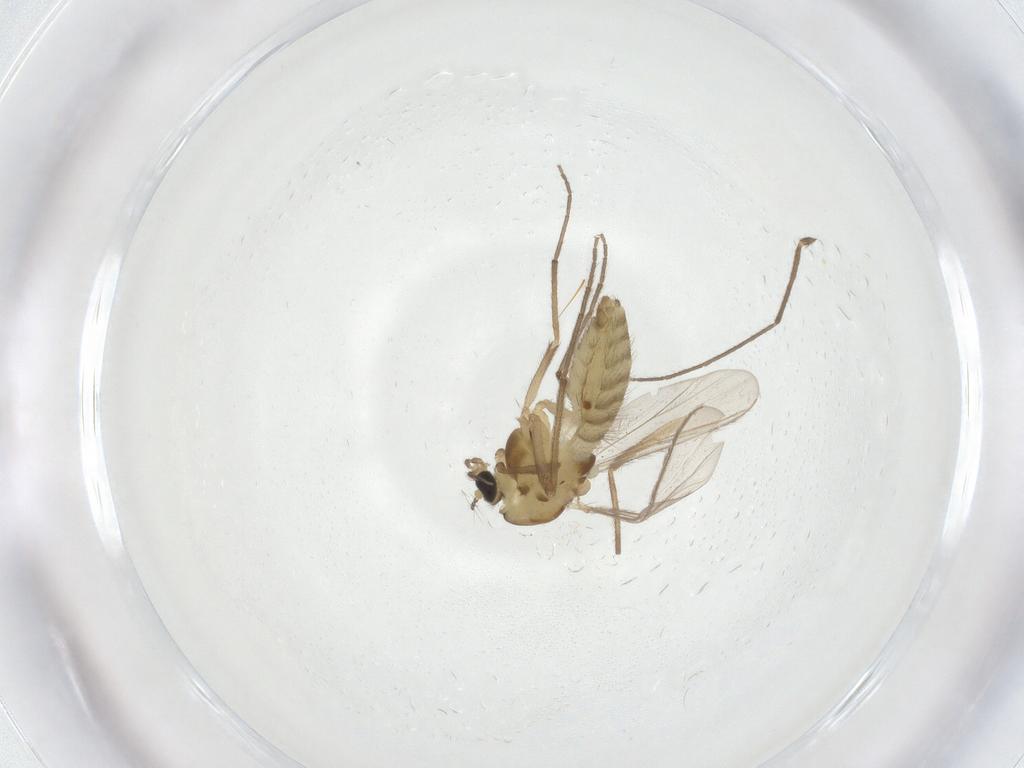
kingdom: Animalia
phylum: Arthropoda
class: Insecta
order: Diptera
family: Chironomidae
